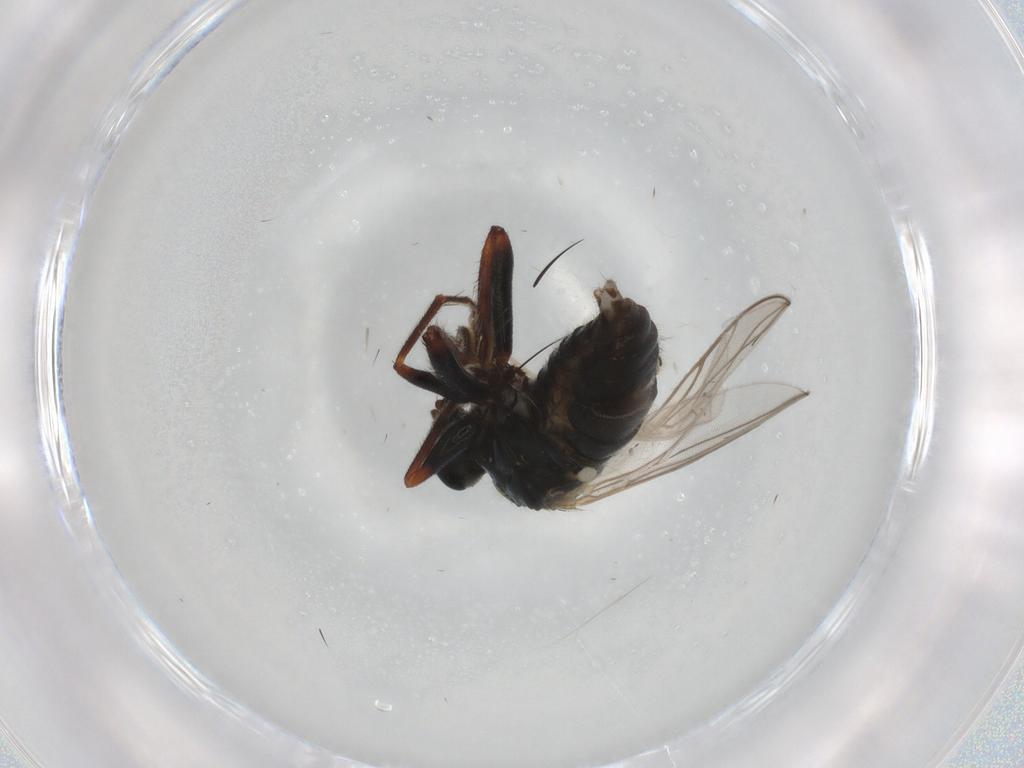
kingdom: Animalia
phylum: Arthropoda
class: Insecta
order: Diptera
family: Hybotidae
